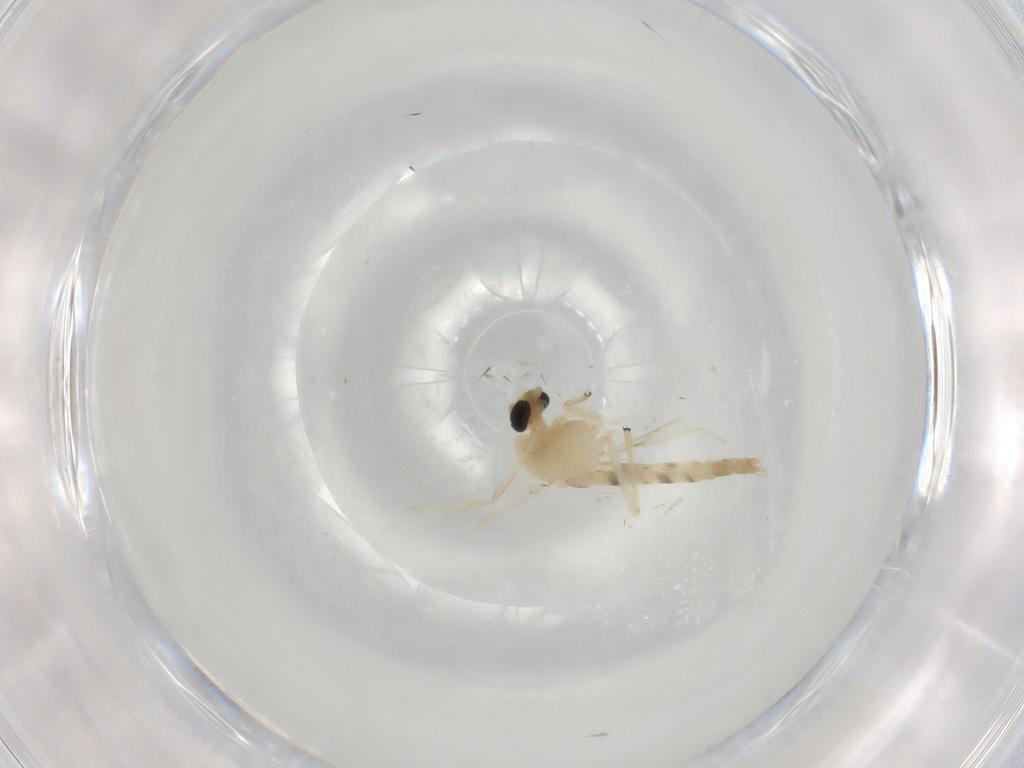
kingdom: Animalia
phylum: Arthropoda
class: Insecta
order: Diptera
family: Chironomidae
